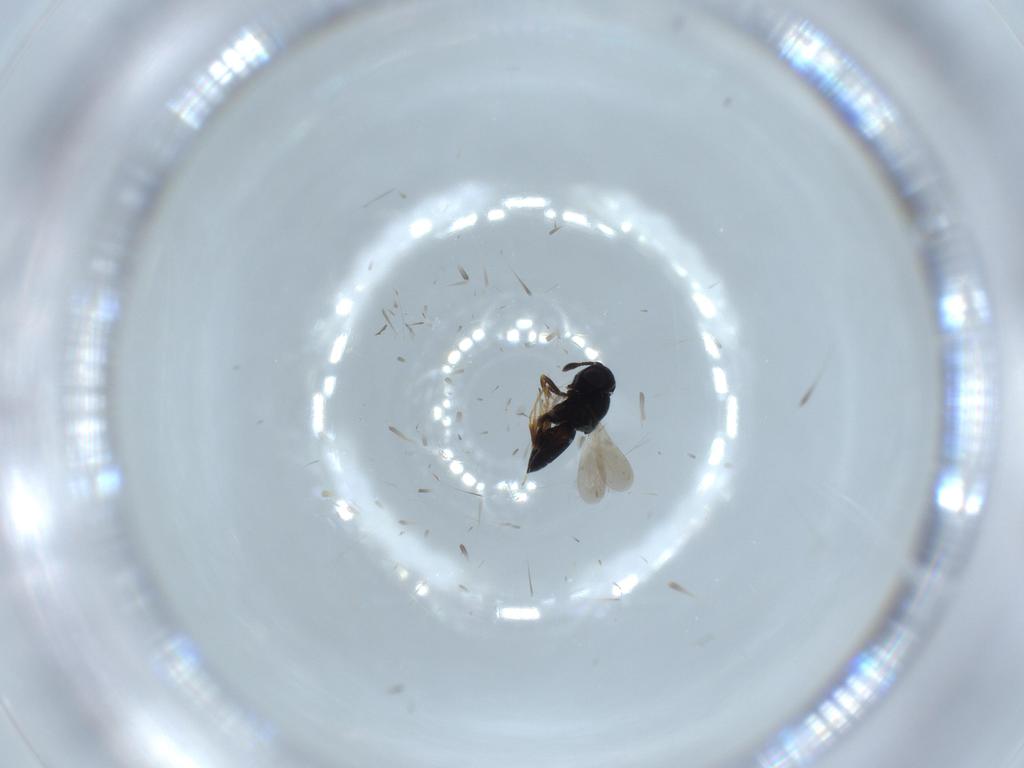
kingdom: Animalia
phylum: Arthropoda
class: Insecta
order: Hymenoptera
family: Scelionidae
